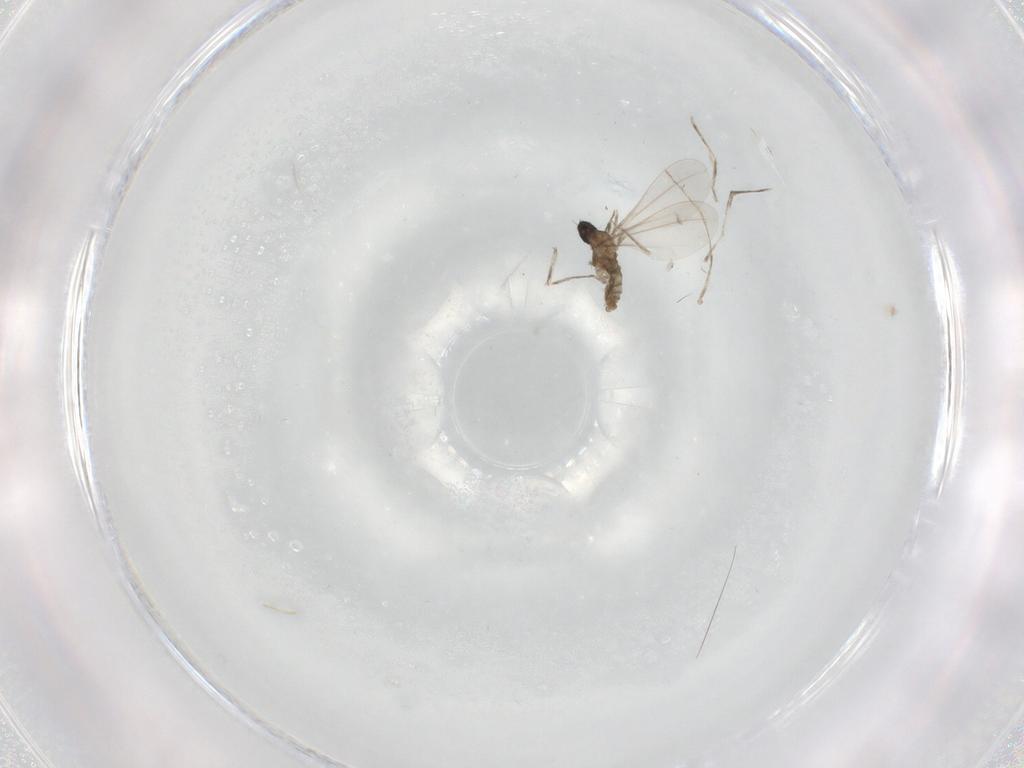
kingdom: Animalia
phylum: Arthropoda
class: Insecta
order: Diptera
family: Cecidomyiidae
